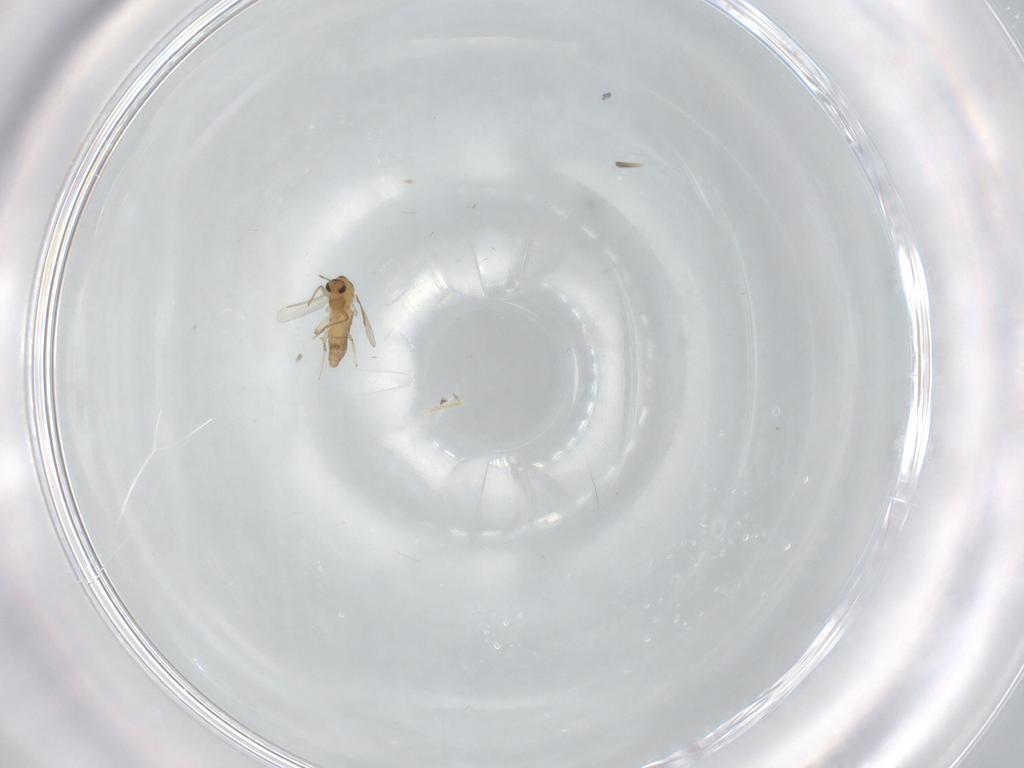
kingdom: Animalia
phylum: Arthropoda
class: Insecta
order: Diptera
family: Chironomidae
